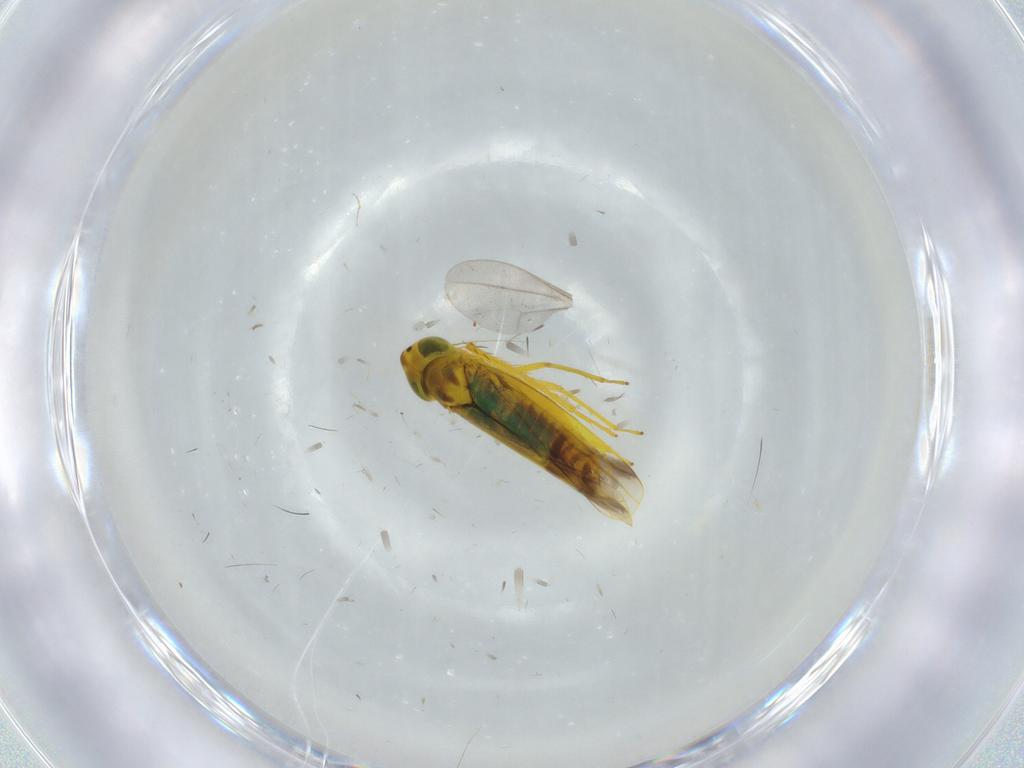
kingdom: Animalia
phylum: Arthropoda
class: Insecta
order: Hemiptera
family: Cicadellidae
